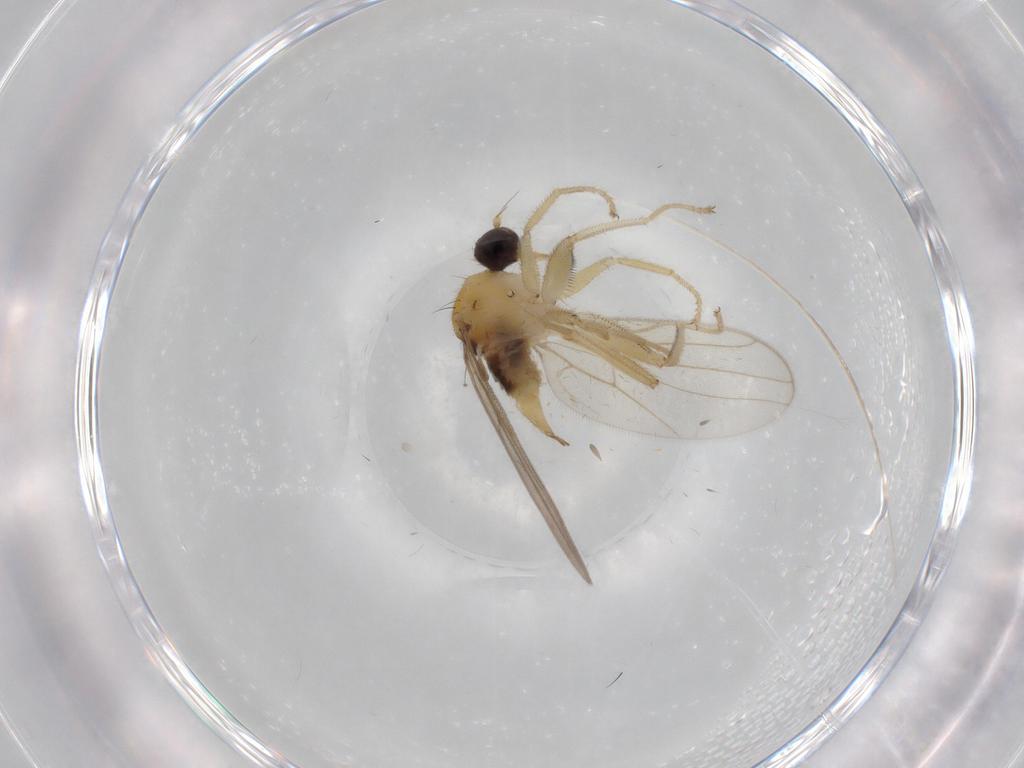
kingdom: Animalia
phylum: Arthropoda
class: Insecta
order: Diptera
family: Hybotidae
